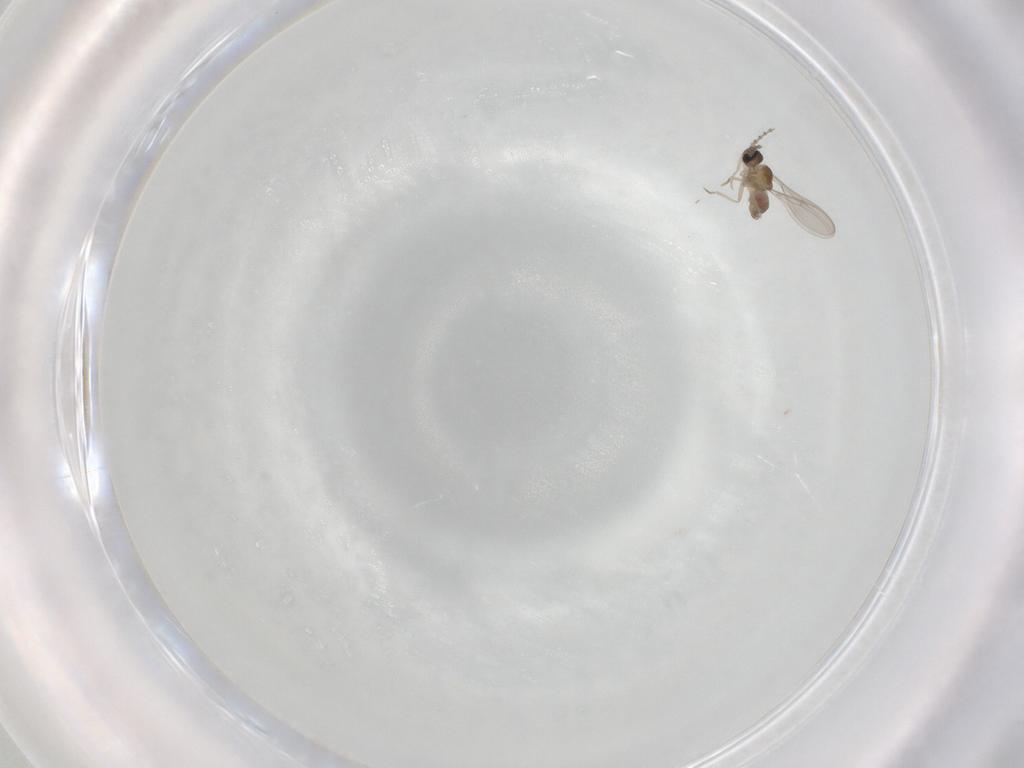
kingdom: Animalia
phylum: Arthropoda
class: Insecta
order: Diptera
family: Cecidomyiidae
